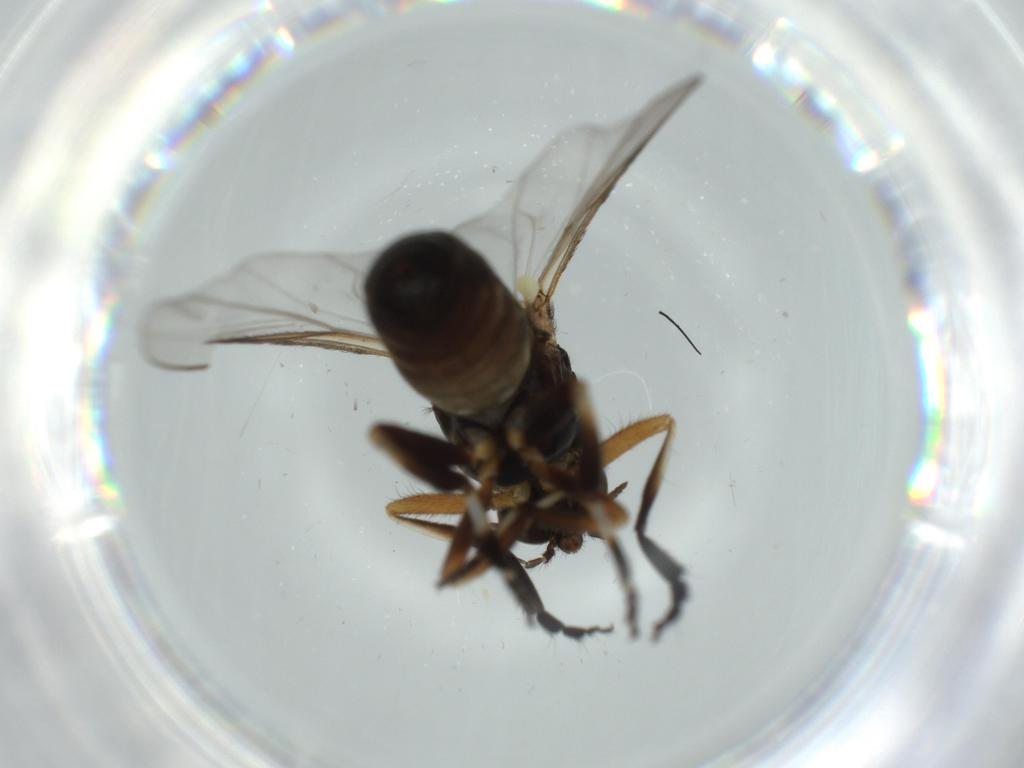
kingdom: Animalia
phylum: Arthropoda
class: Insecta
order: Diptera
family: Cecidomyiidae
